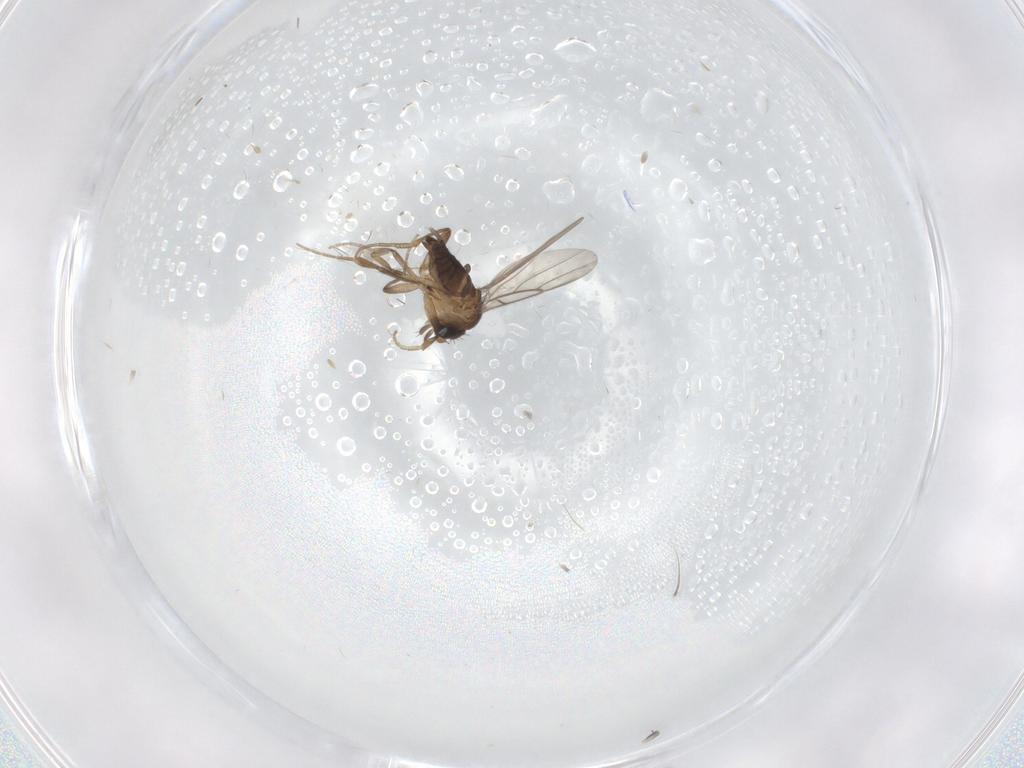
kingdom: Animalia
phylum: Arthropoda
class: Insecta
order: Diptera
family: Phoridae
